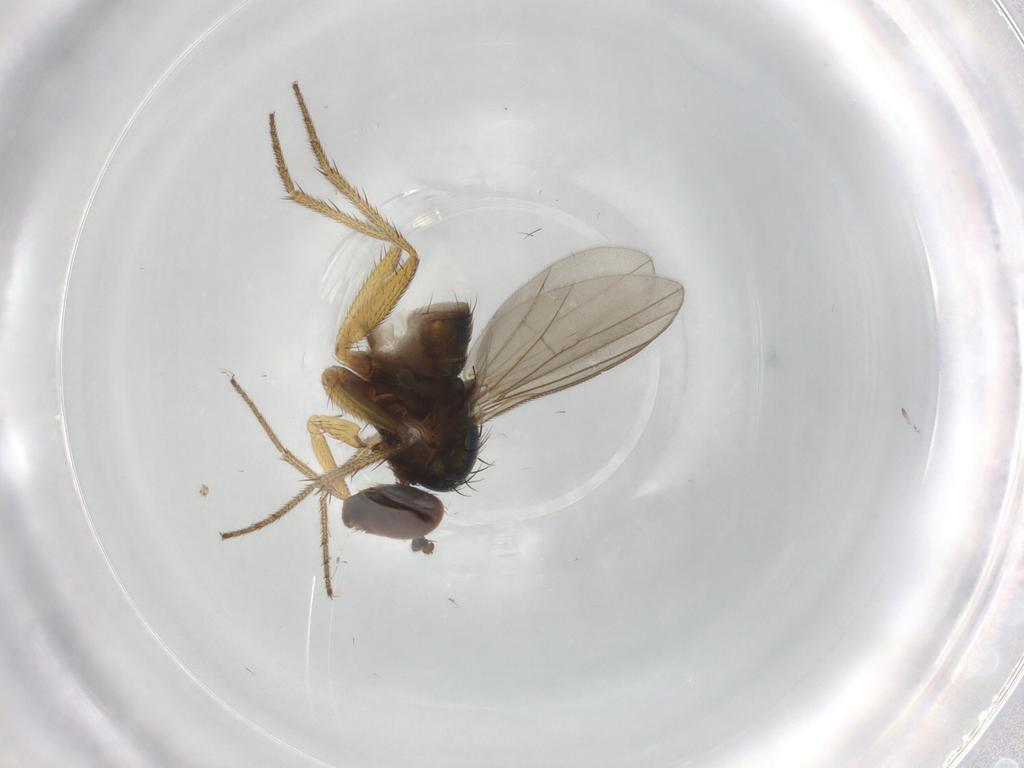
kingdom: Animalia
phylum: Arthropoda
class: Insecta
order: Diptera
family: Chironomidae
